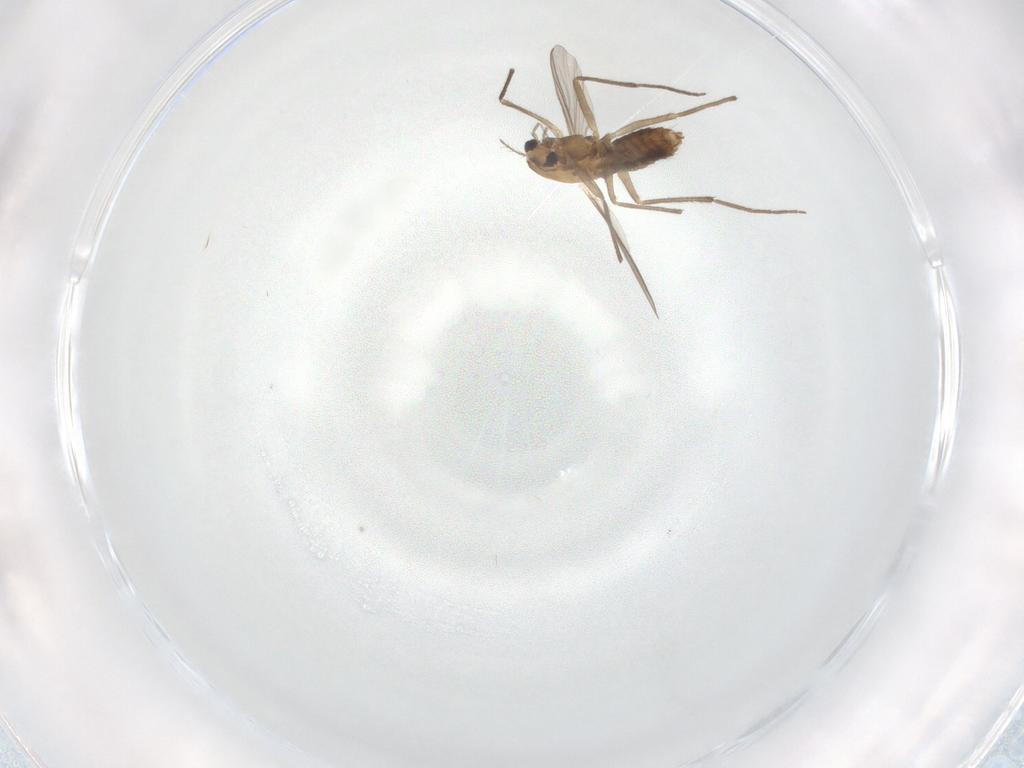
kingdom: Animalia
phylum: Arthropoda
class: Insecta
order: Diptera
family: Chironomidae
